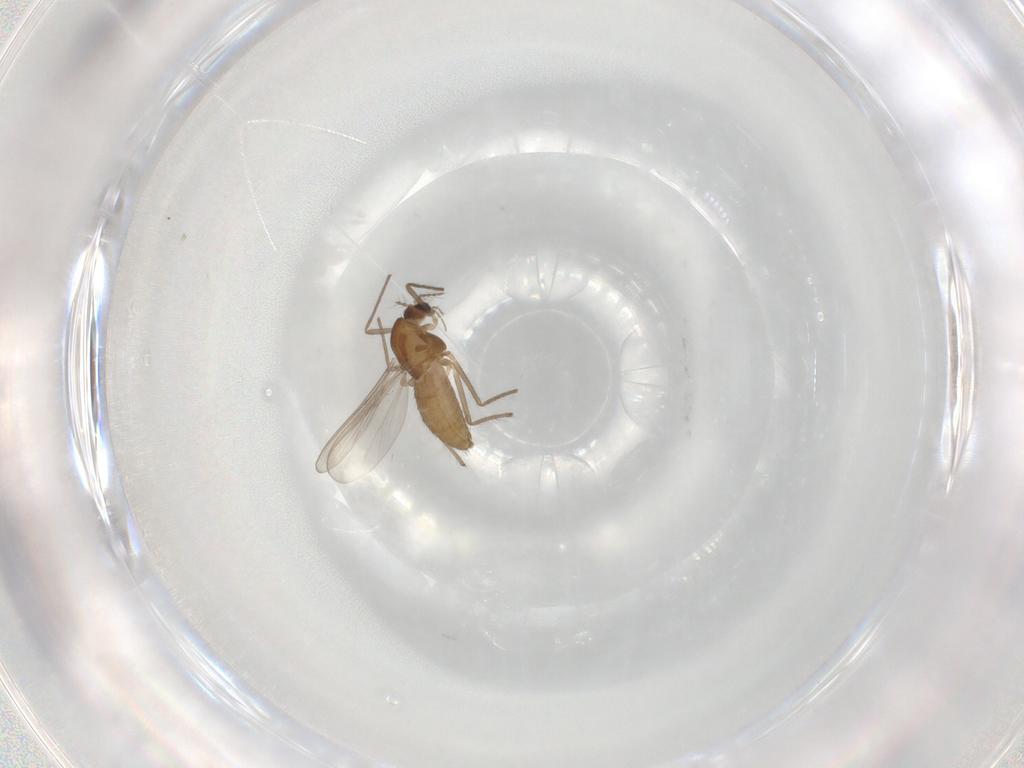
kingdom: Animalia
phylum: Arthropoda
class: Insecta
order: Diptera
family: Chironomidae
